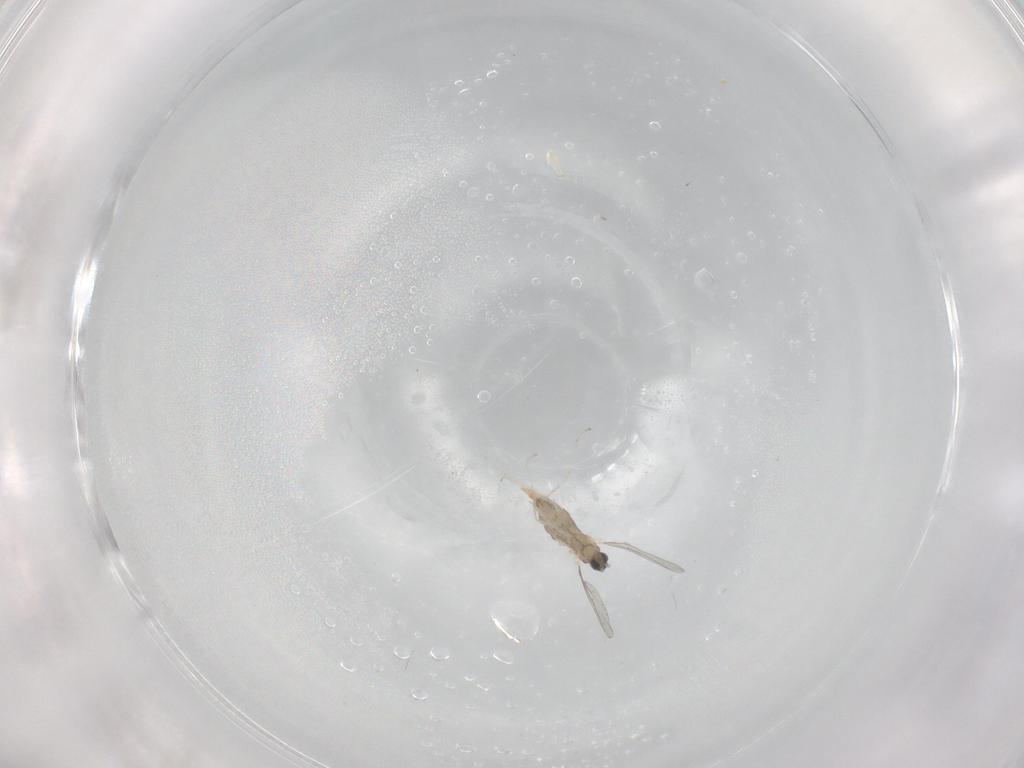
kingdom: Animalia
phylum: Arthropoda
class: Insecta
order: Diptera
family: Cecidomyiidae
